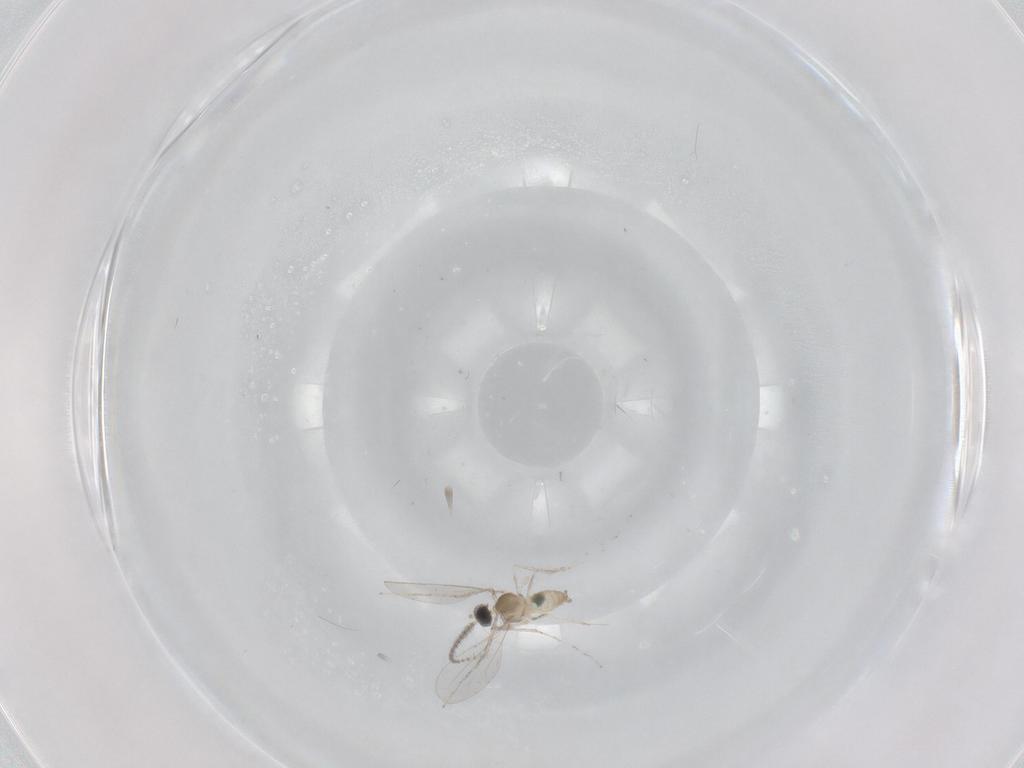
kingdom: Animalia
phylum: Arthropoda
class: Insecta
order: Diptera
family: Cecidomyiidae
